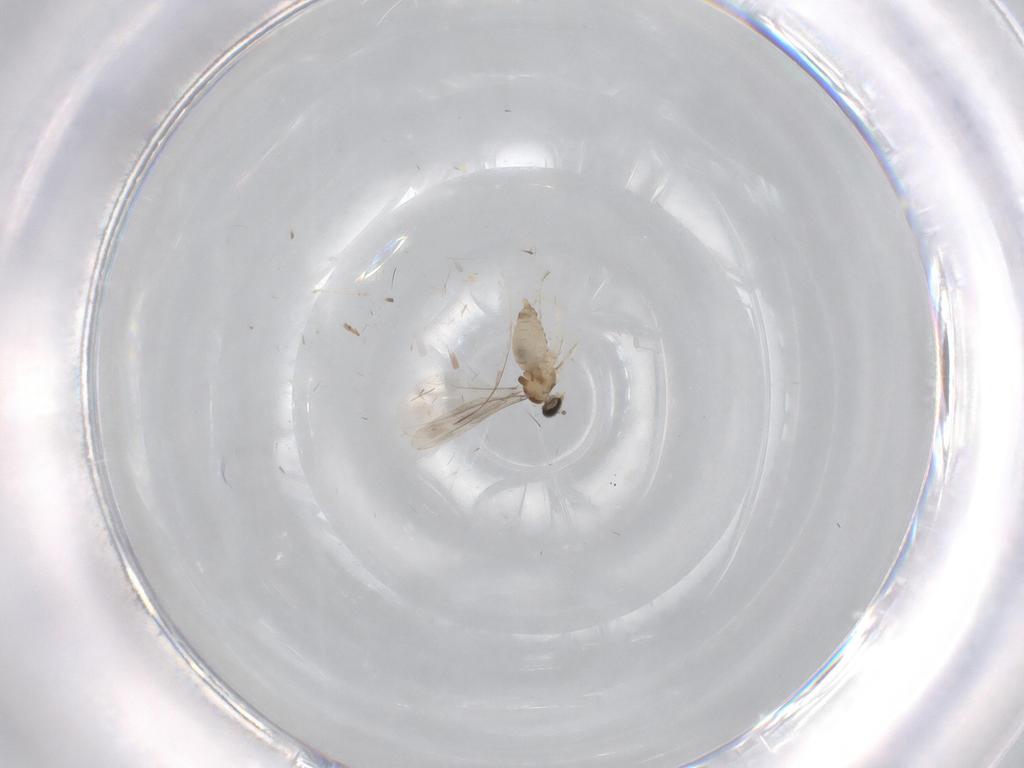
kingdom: Animalia
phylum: Arthropoda
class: Insecta
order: Diptera
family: Cecidomyiidae
